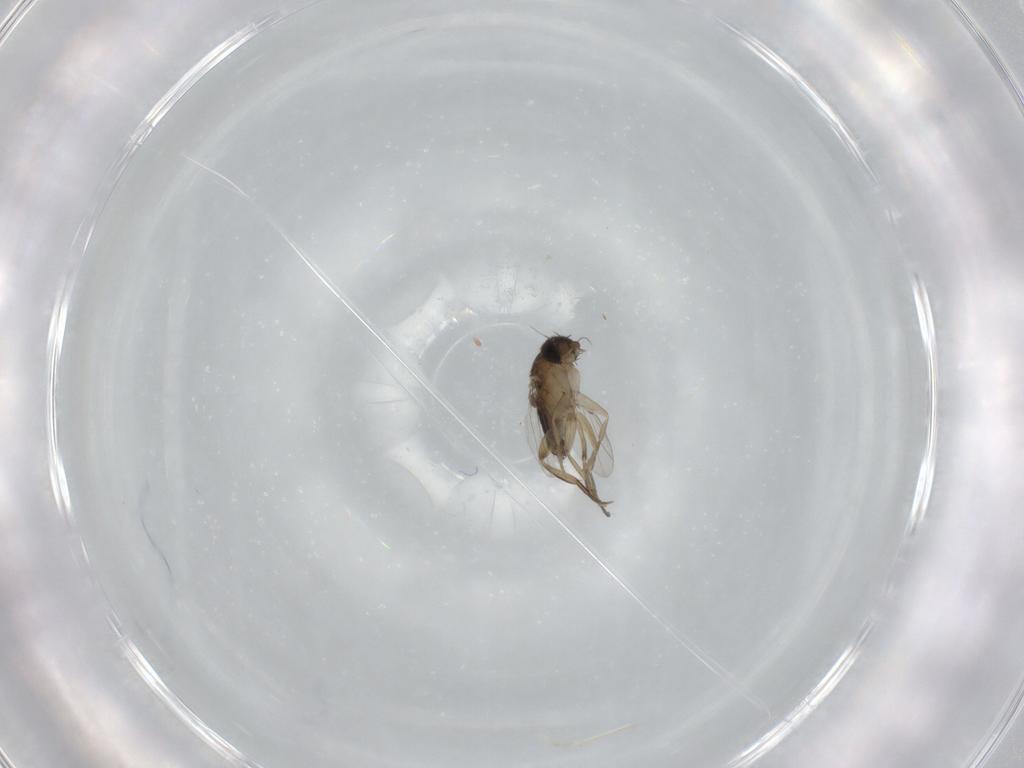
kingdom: Animalia
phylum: Arthropoda
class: Insecta
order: Diptera
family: Phoridae
